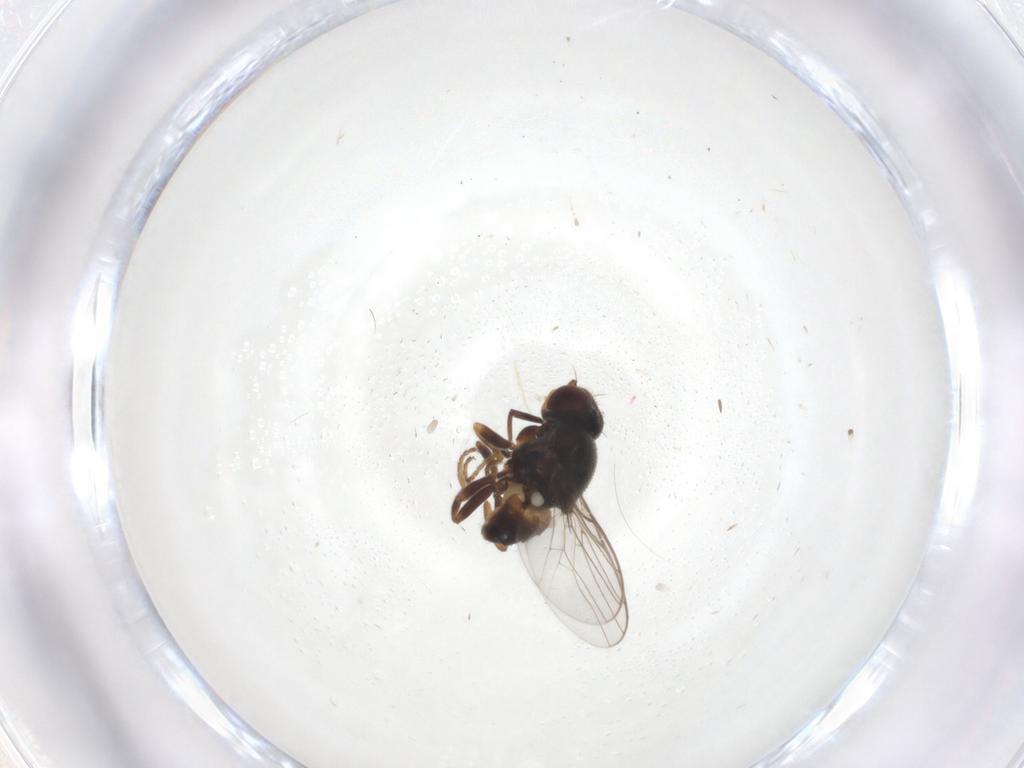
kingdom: Animalia
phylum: Arthropoda
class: Insecta
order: Diptera
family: Chloropidae
